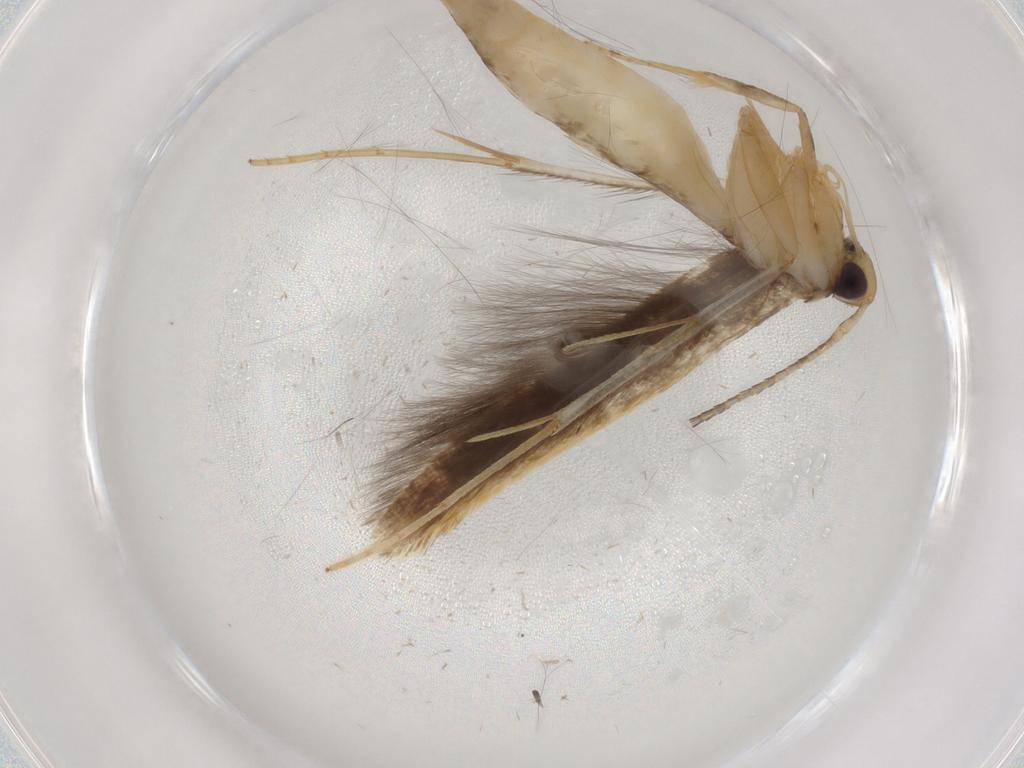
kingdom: Animalia
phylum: Arthropoda
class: Insecta
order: Lepidoptera
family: Pterolonchidae
